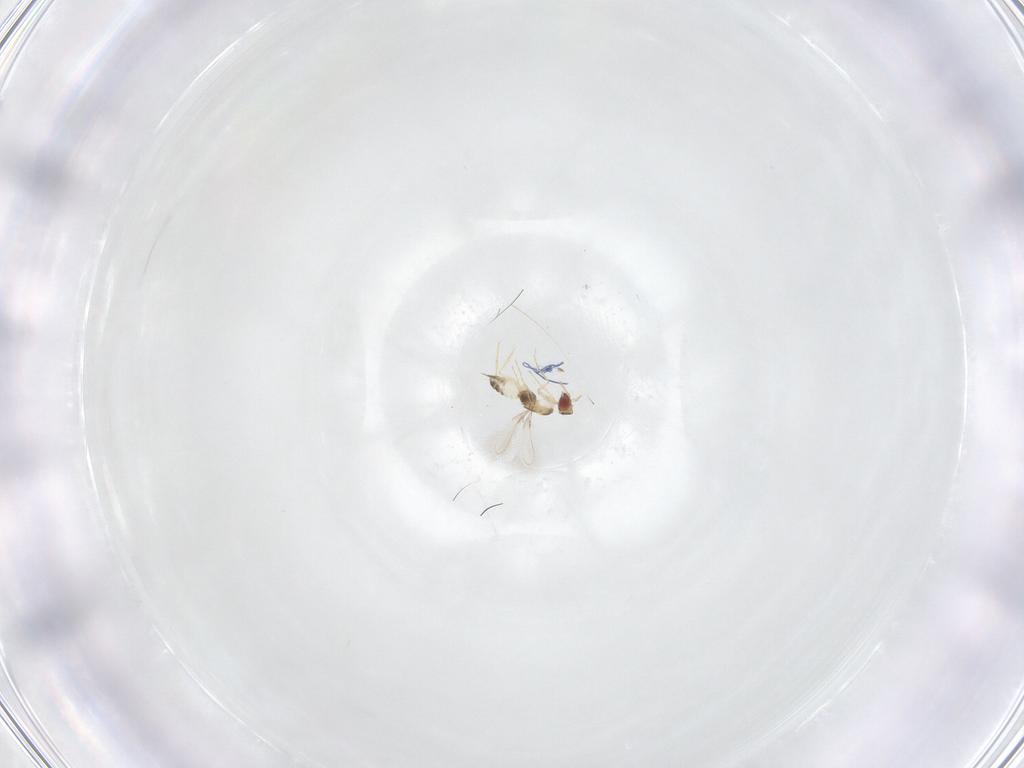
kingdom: Animalia
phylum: Arthropoda
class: Insecta
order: Hymenoptera
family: Mymaridae
